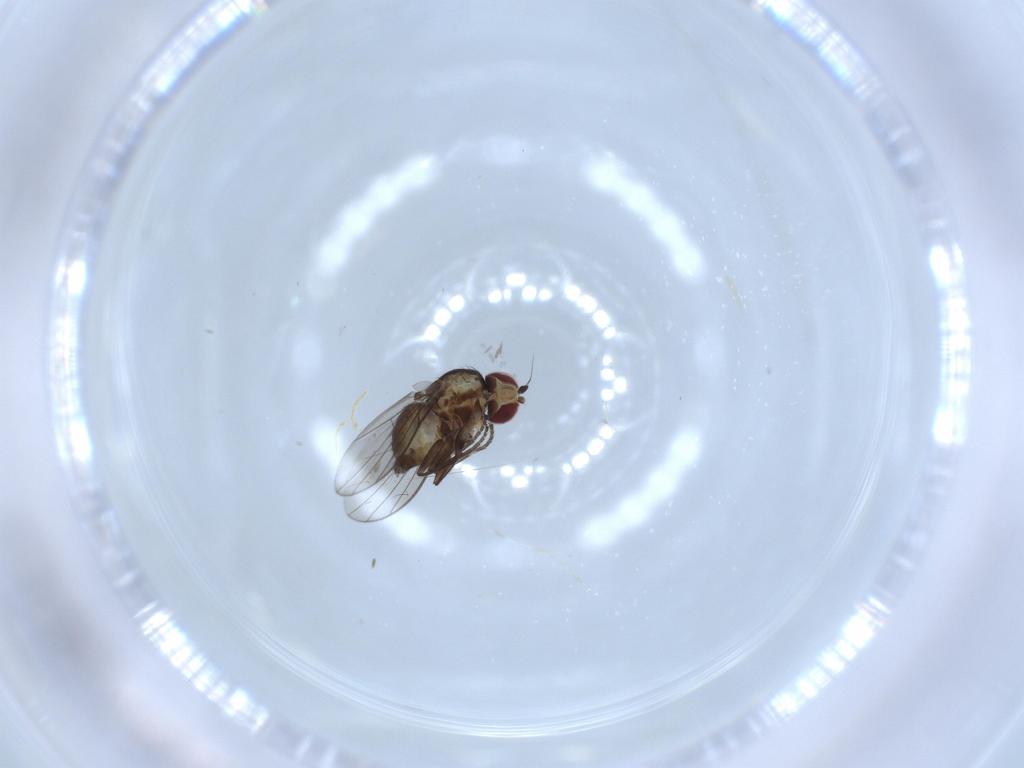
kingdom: Animalia
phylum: Arthropoda
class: Insecta
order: Diptera
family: Agromyzidae
